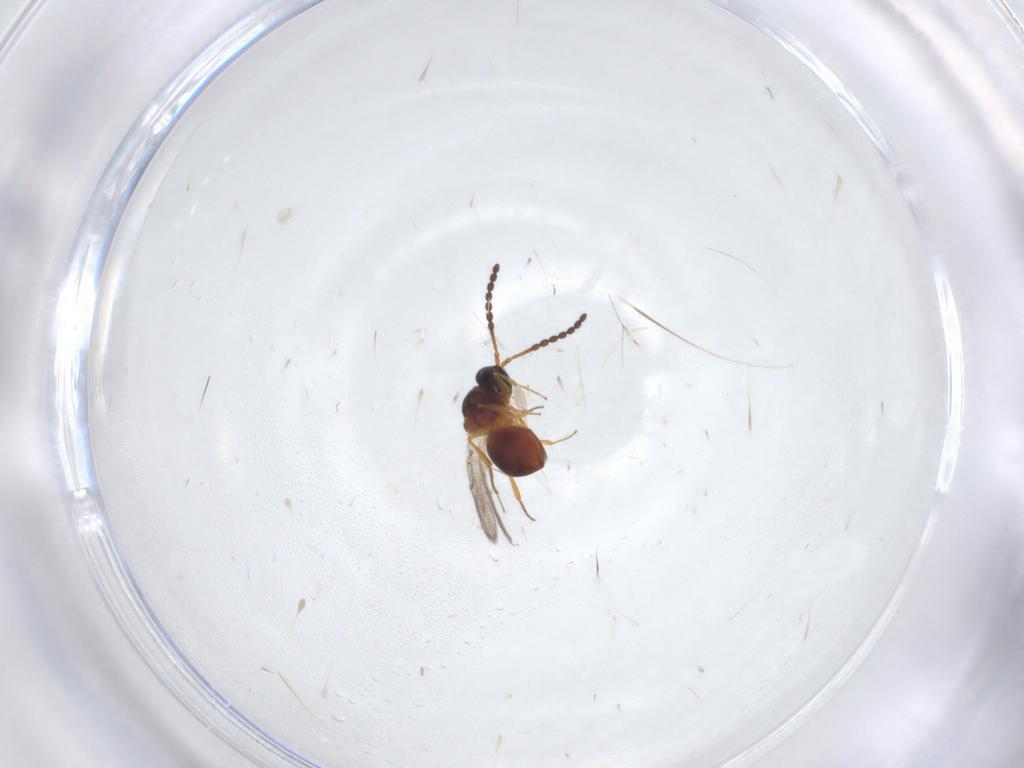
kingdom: Animalia
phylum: Arthropoda
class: Insecta
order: Hymenoptera
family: Figitidae
